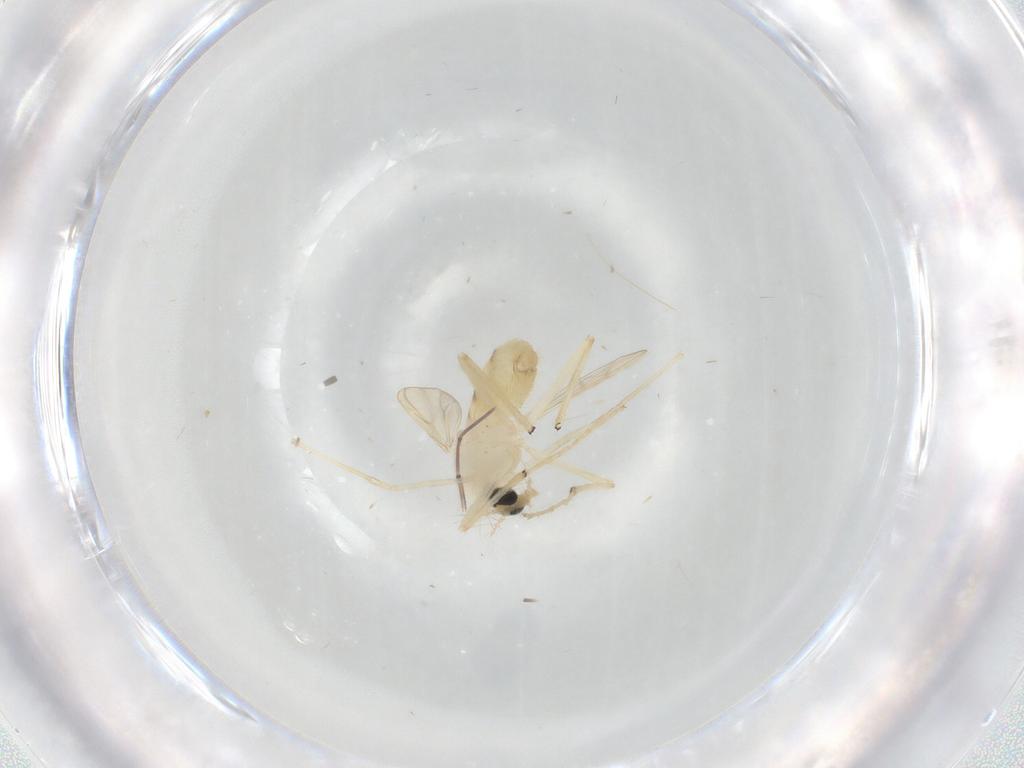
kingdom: Animalia
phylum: Arthropoda
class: Insecta
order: Diptera
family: Chironomidae
